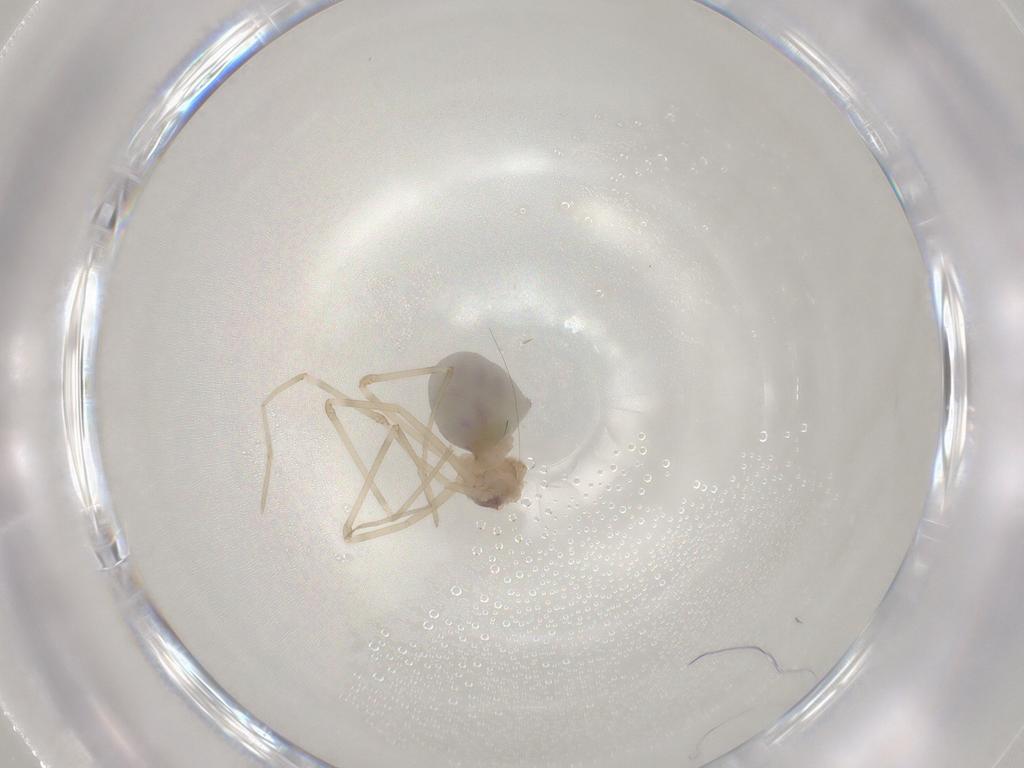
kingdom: Animalia
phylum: Arthropoda
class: Arachnida
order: Araneae
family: Pholcidae
